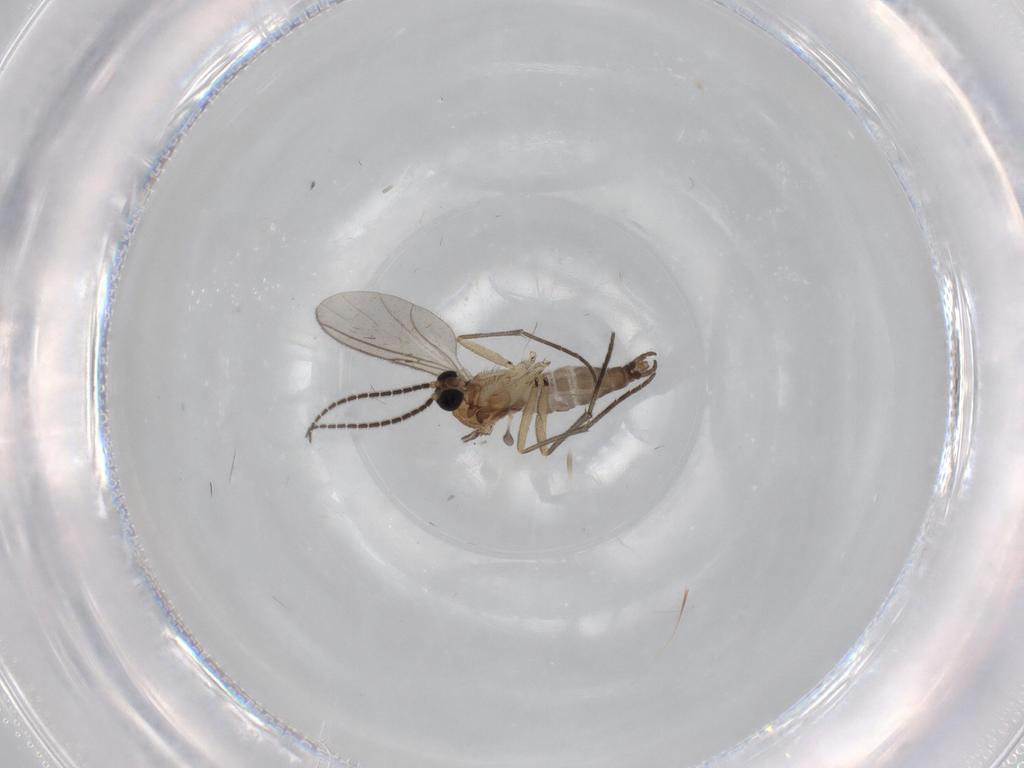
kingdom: Animalia
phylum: Arthropoda
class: Insecta
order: Diptera
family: Sciaridae
